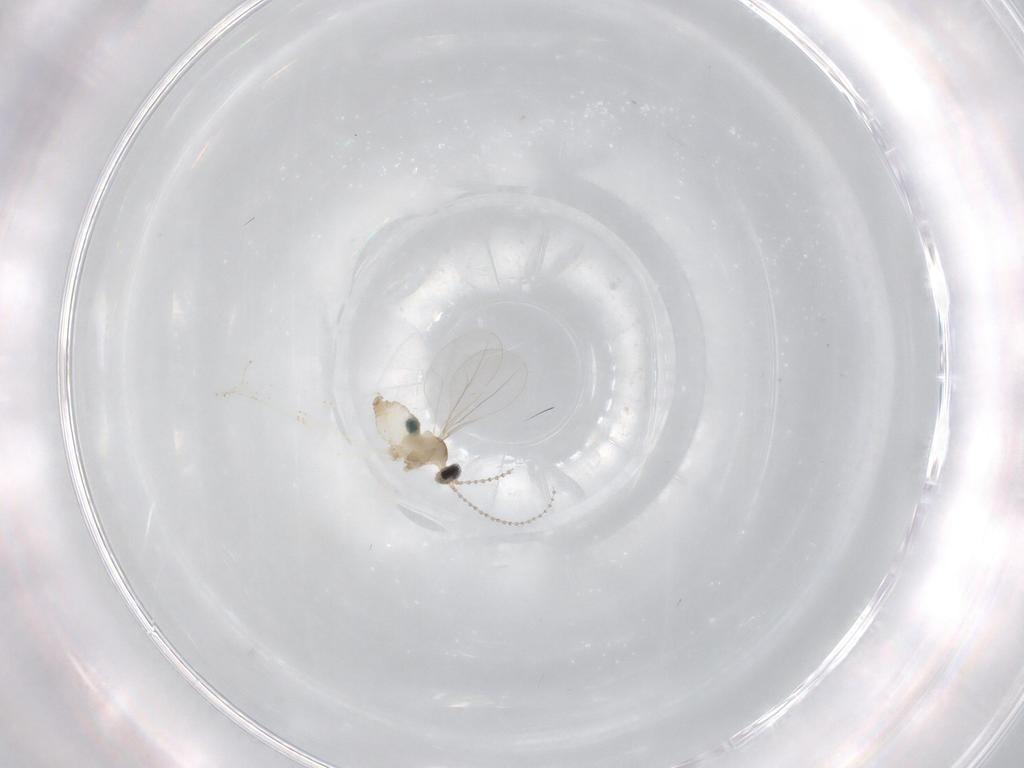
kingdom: Animalia
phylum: Arthropoda
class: Insecta
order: Diptera
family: Cecidomyiidae
